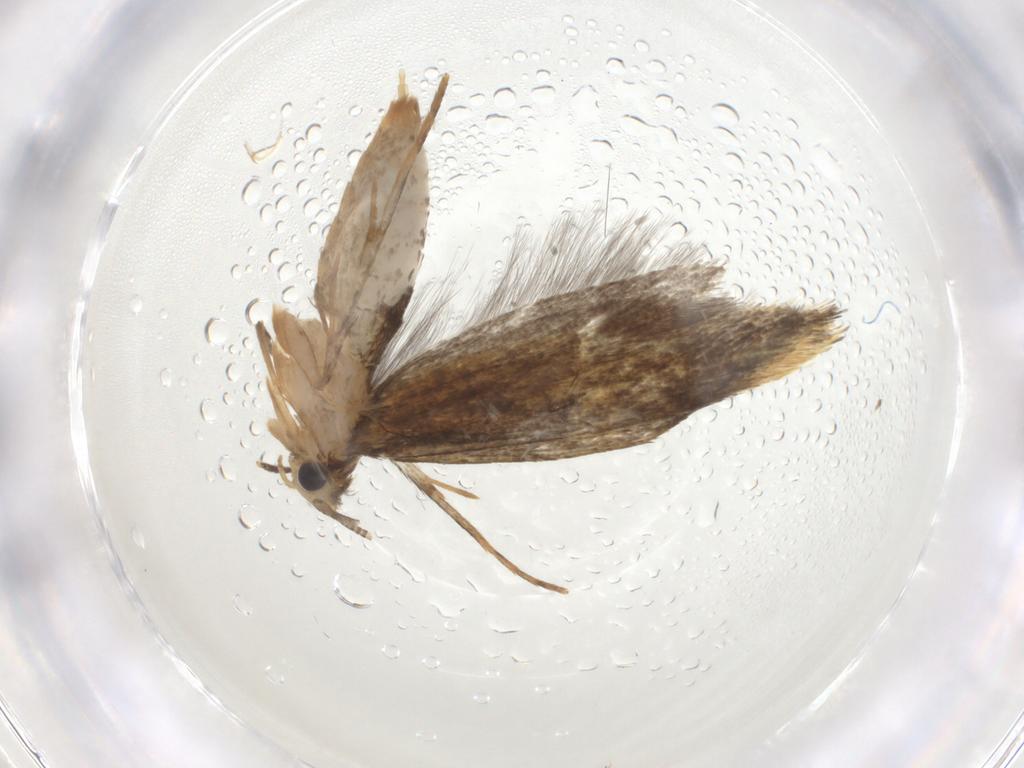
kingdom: Animalia
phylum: Arthropoda
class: Insecta
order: Lepidoptera
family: Tineidae
